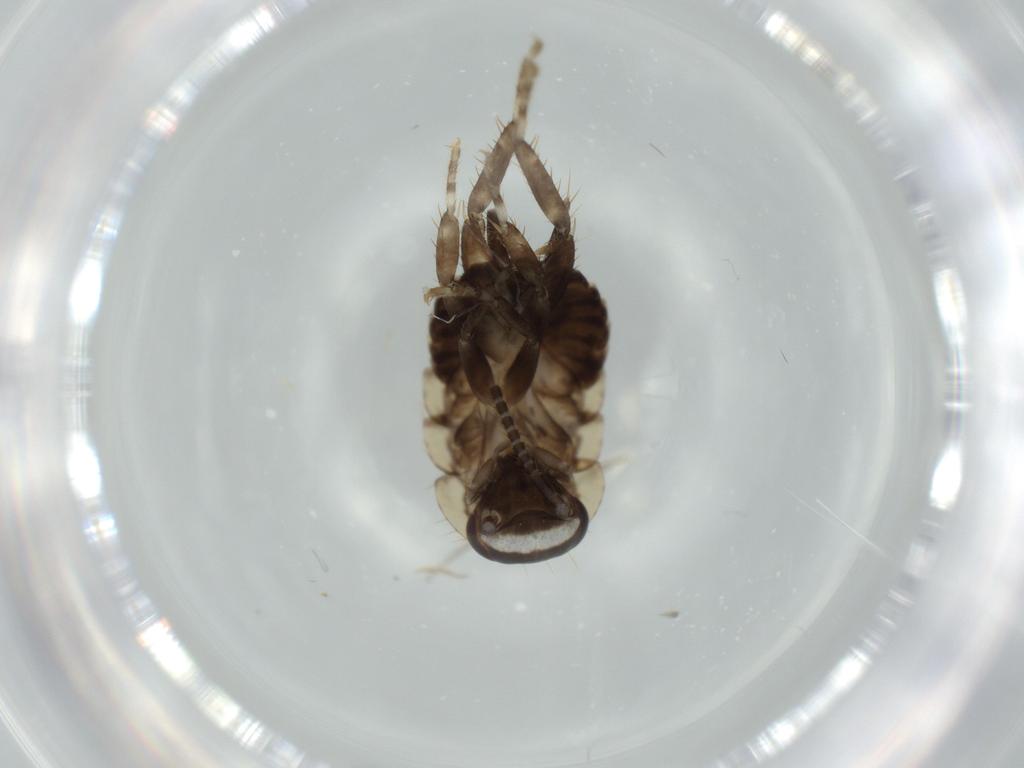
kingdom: Animalia
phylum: Arthropoda
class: Insecta
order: Blattodea
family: Ectobiidae
